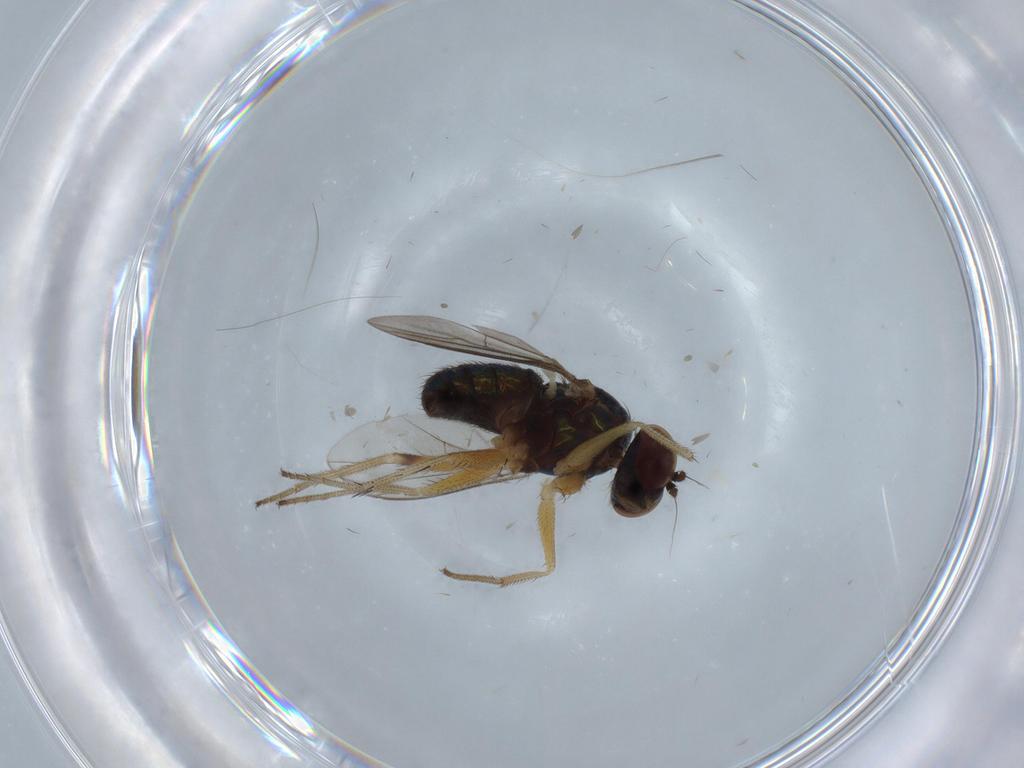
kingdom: Animalia
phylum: Arthropoda
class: Insecta
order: Diptera
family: Cecidomyiidae
